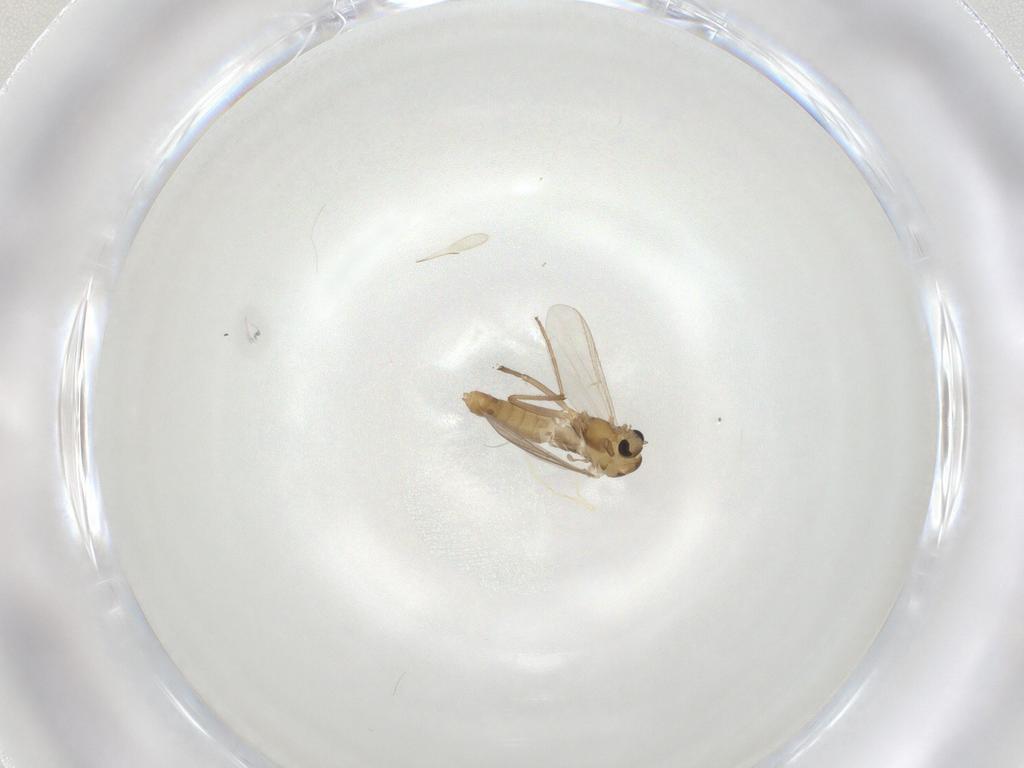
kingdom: Animalia
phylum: Arthropoda
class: Insecta
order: Diptera
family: Chironomidae
